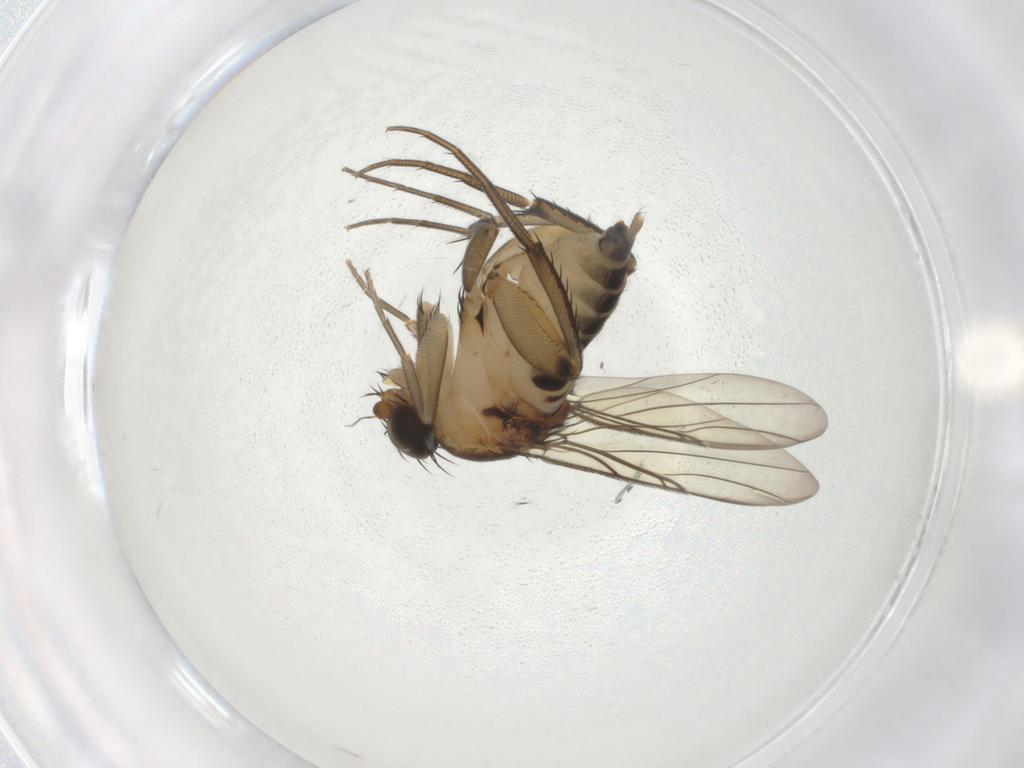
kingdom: Animalia
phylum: Arthropoda
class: Insecta
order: Diptera
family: Phoridae
